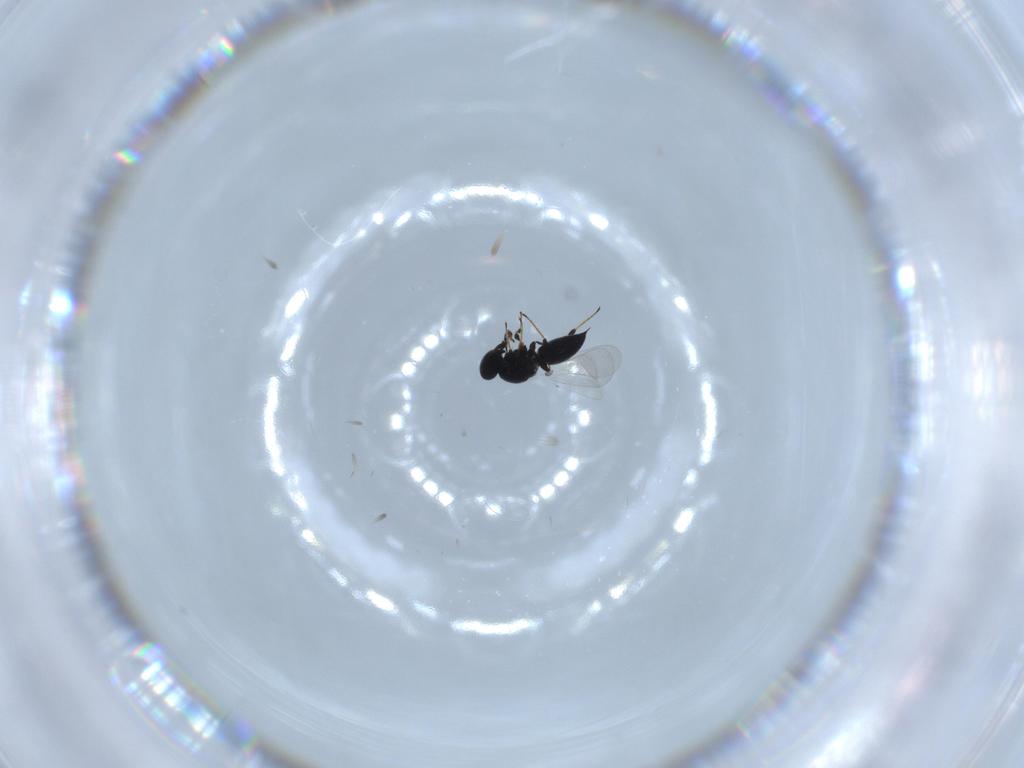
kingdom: Animalia
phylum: Arthropoda
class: Insecta
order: Hymenoptera
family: Platygastridae
